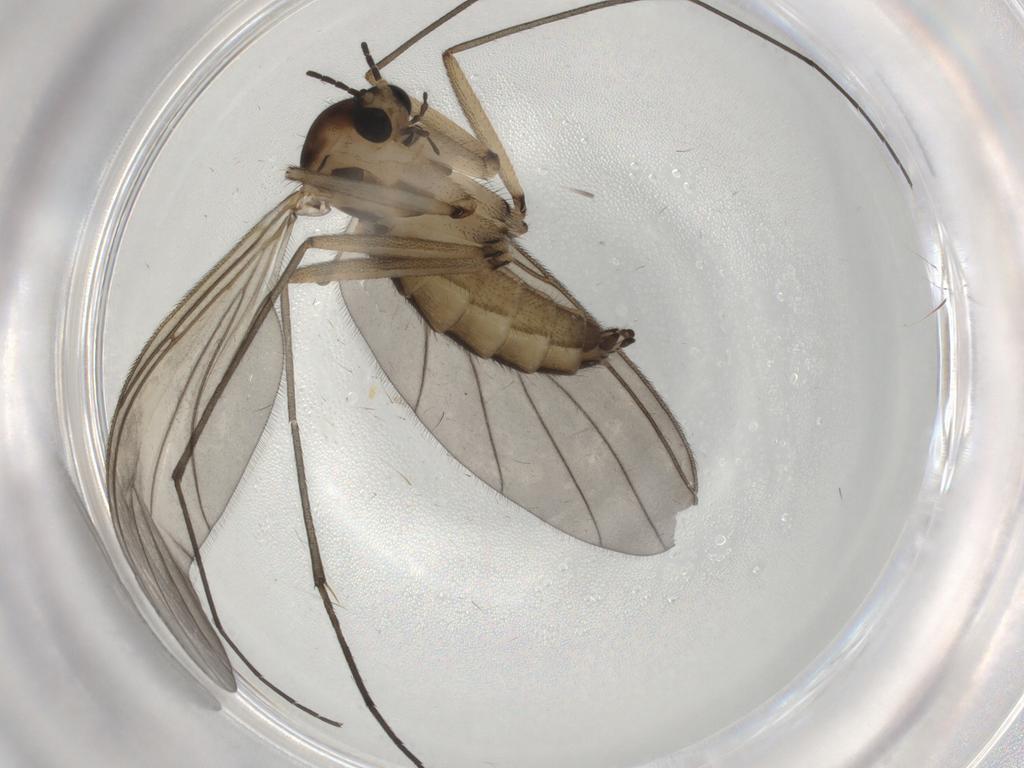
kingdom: Animalia
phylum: Arthropoda
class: Insecta
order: Diptera
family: Sciaridae
